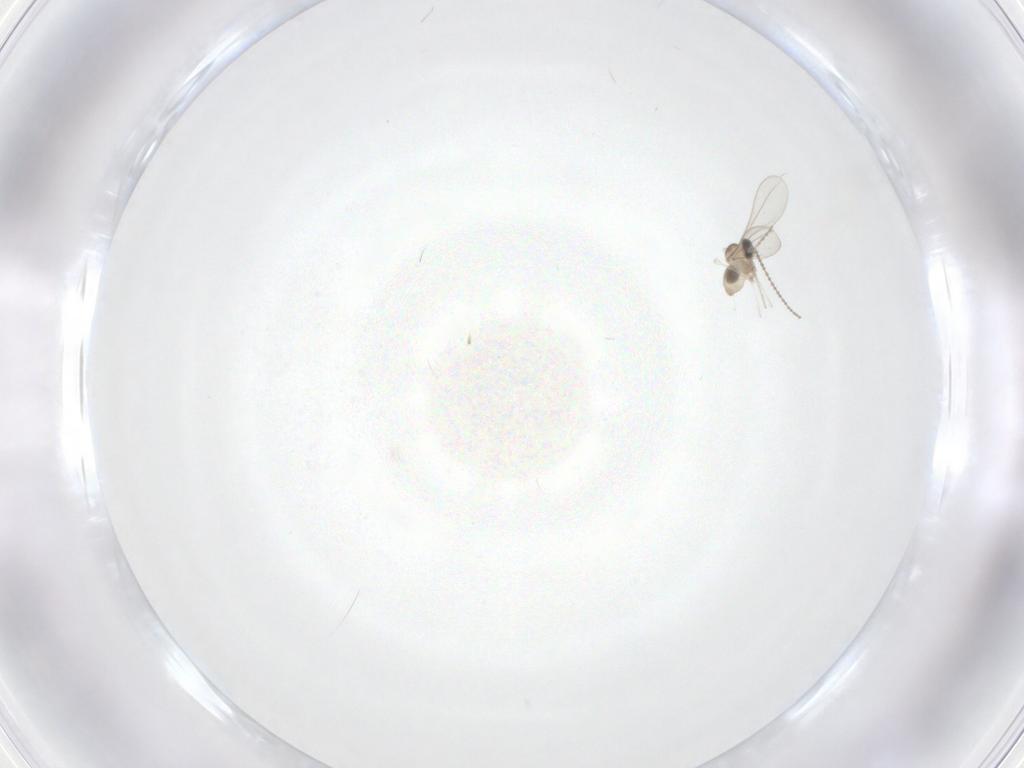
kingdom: Animalia
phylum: Arthropoda
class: Insecta
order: Diptera
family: Cecidomyiidae
